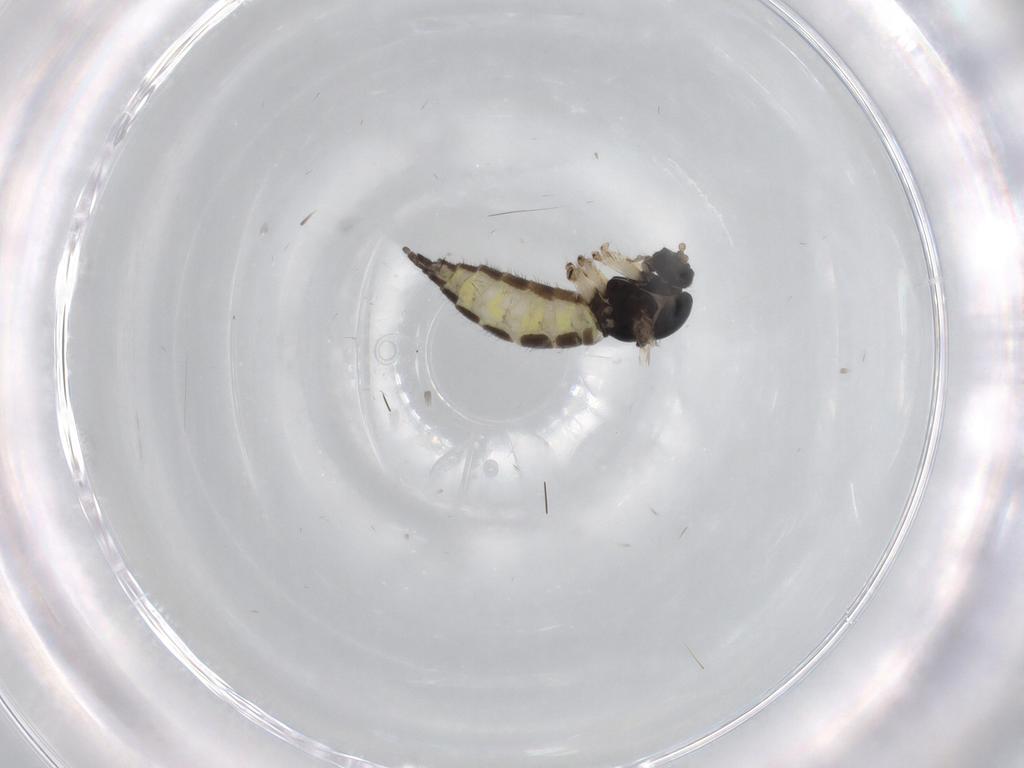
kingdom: Animalia
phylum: Arthropoda
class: Insecta
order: Diptera
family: Sciaridae
